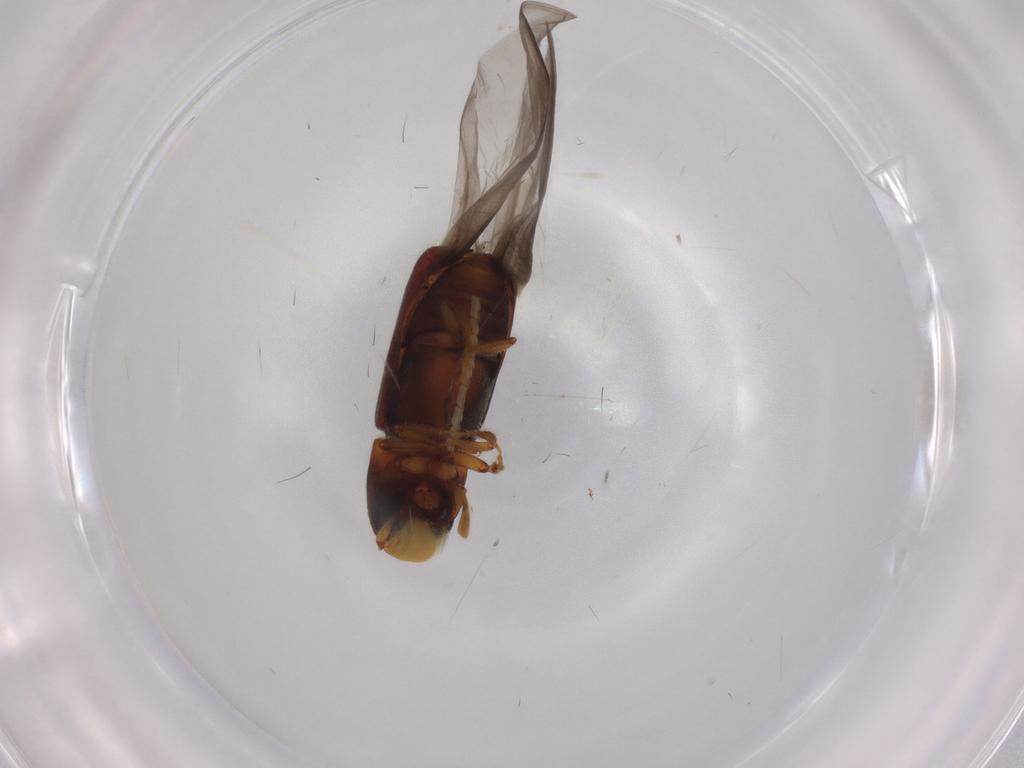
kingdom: Animalia
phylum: Arthropoda
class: Insecta
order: Coleoptera
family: Curculionidae
